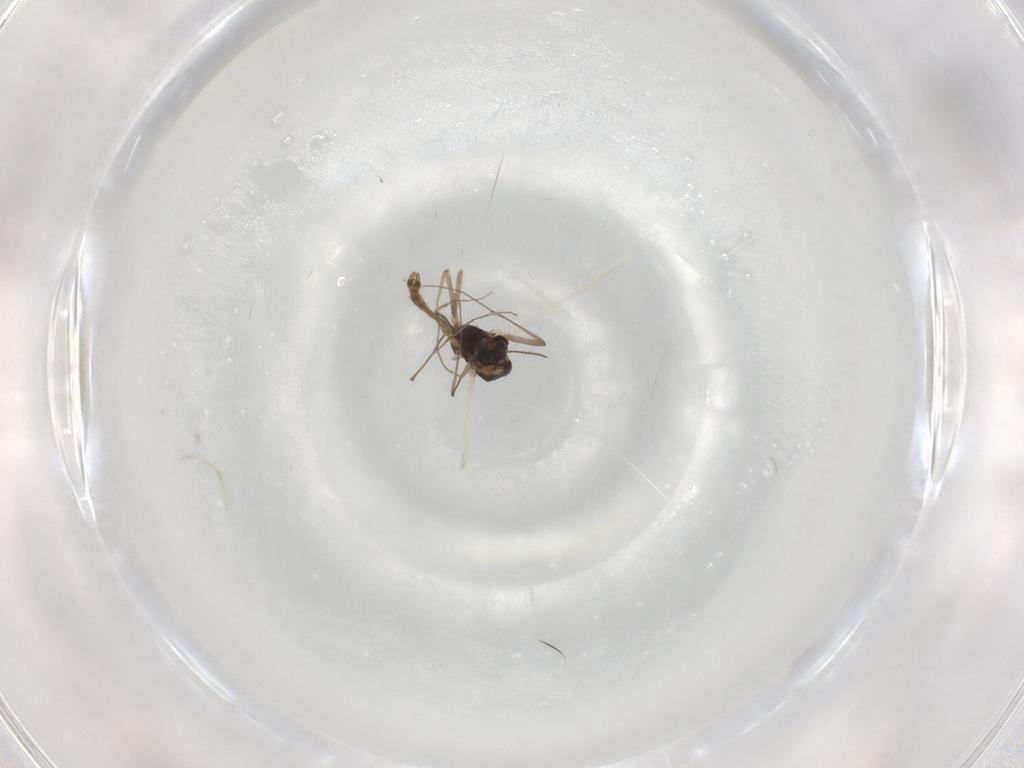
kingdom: Animalia
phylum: Arthropoda
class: Insecta
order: Diptera
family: Chironomidae
